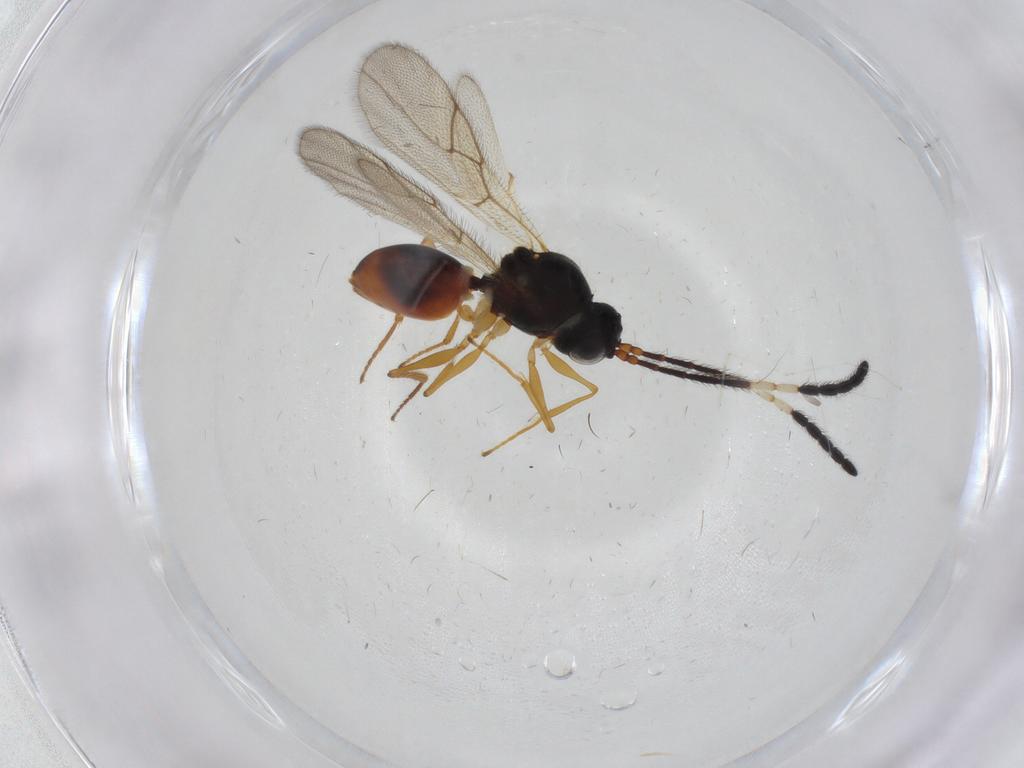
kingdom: Animalia
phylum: Arthropoda
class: Insecta
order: Hymenoptera
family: Figitidae
